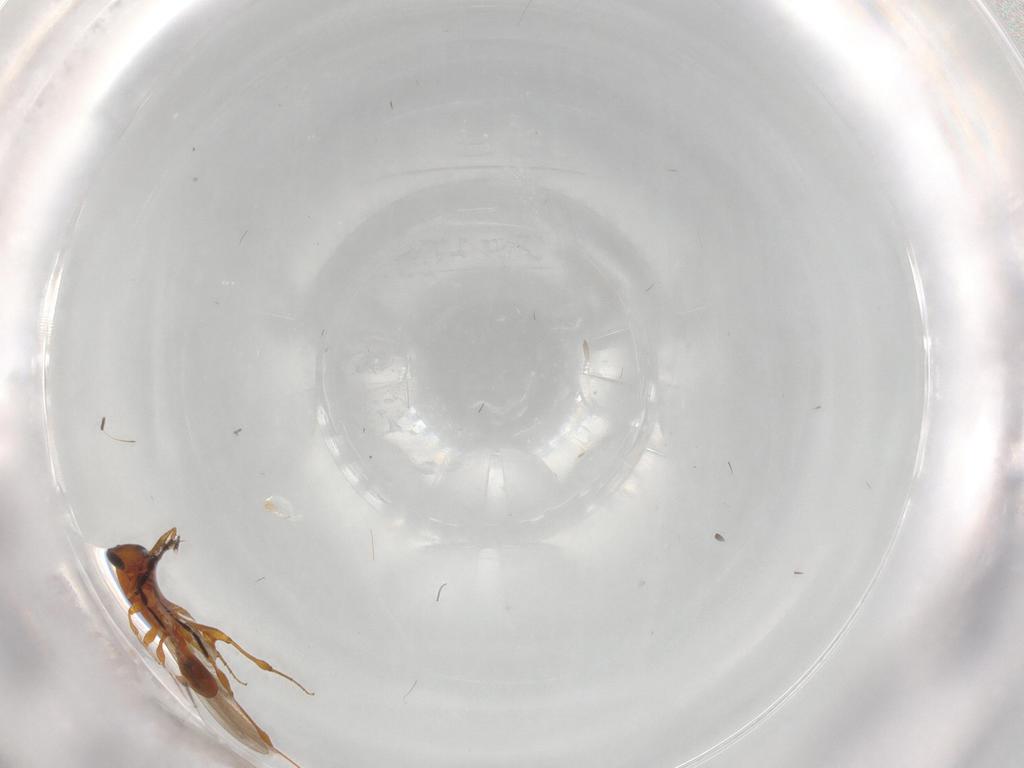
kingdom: Animalia
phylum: Arthropoda
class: Insecta
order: Hymenoptera
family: Platygastridae
